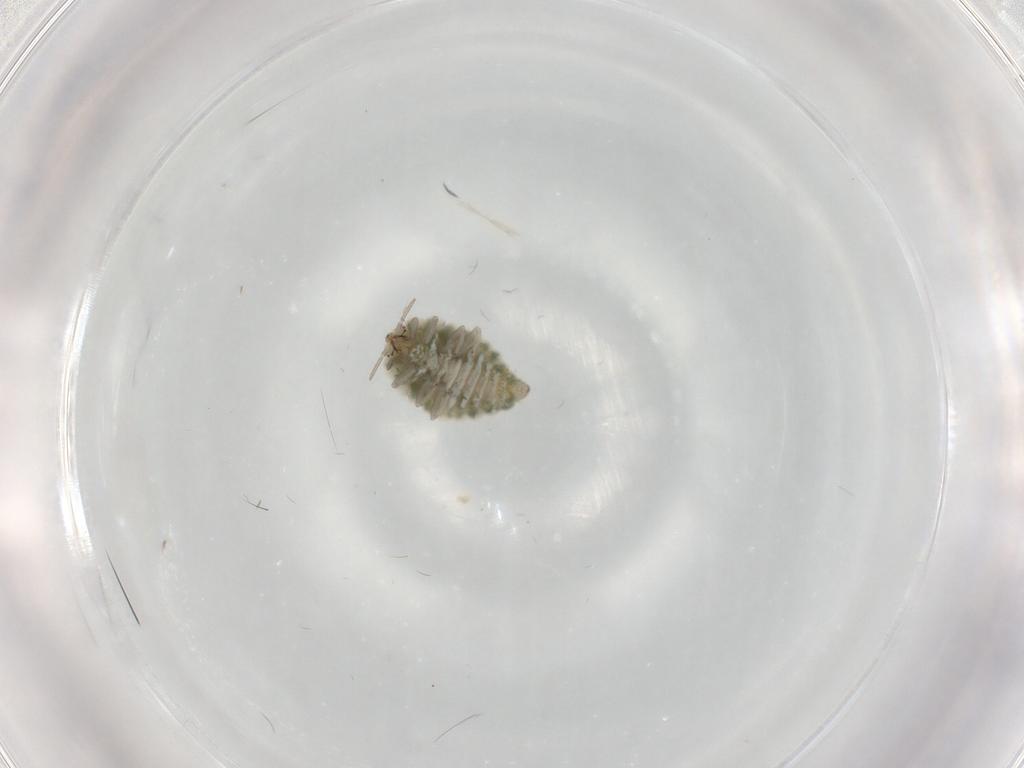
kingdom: Animalia
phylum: Arthropoda
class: Insecta
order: Neuroptera
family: Coniopterygidae
